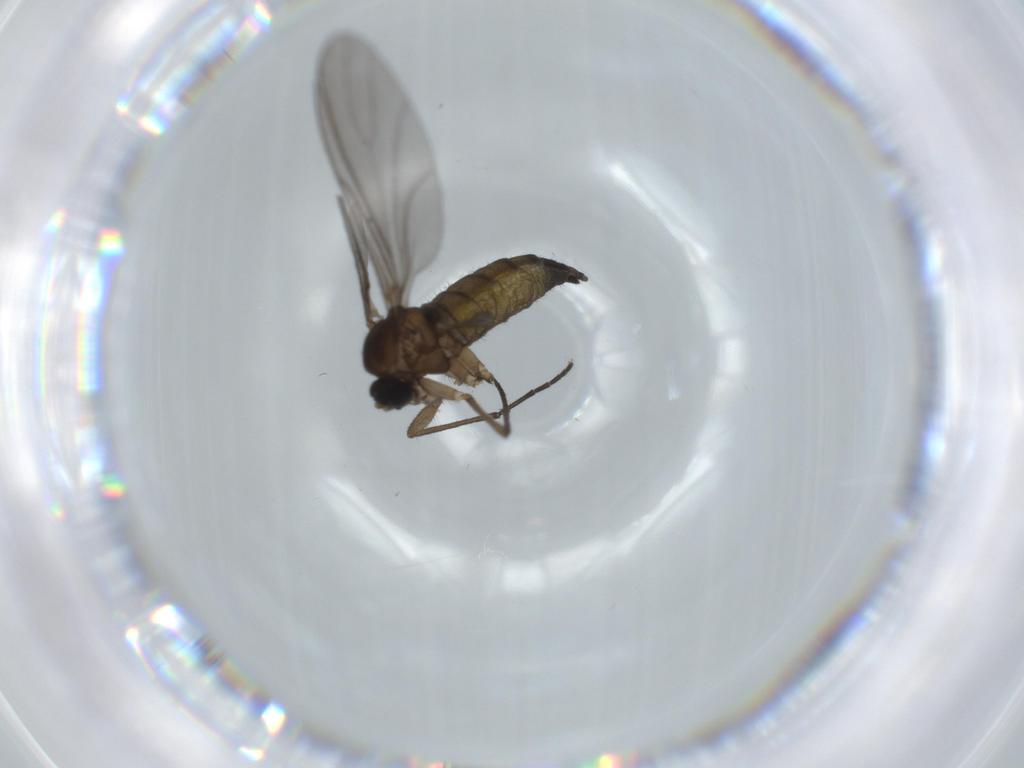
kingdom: Animalia
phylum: Arthropoda
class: Insecta
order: Diptera
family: Sciaridae
